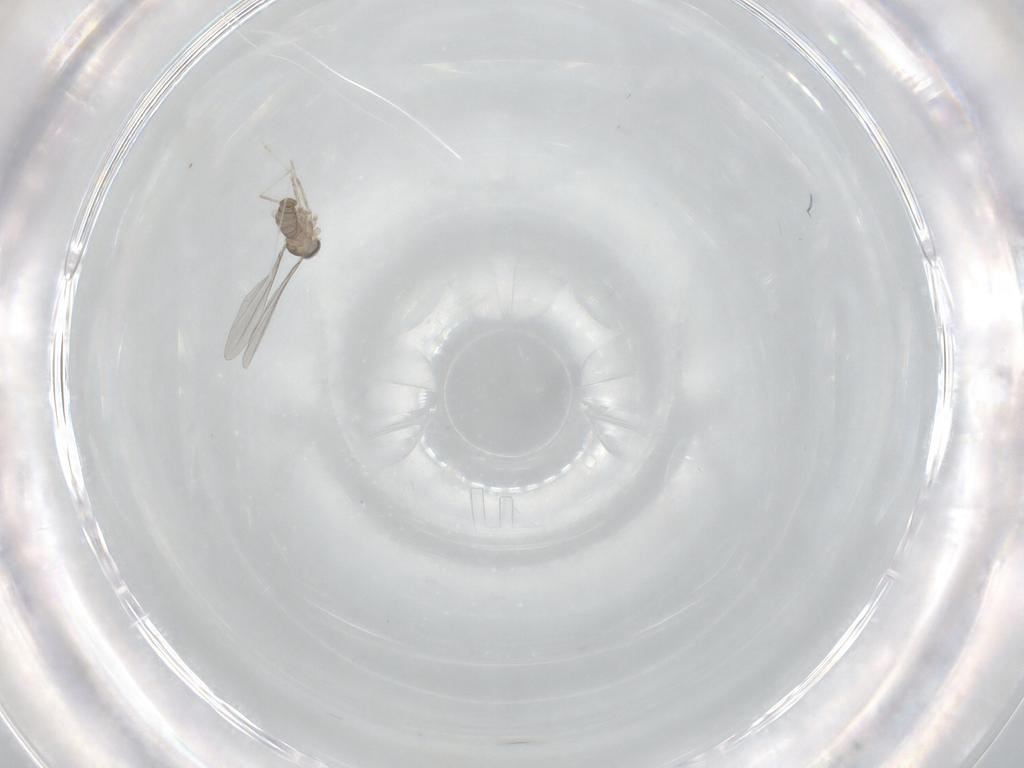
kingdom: Animalia
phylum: Arthropoda
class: Insecta
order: Diptera
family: Cecidomyiidae
